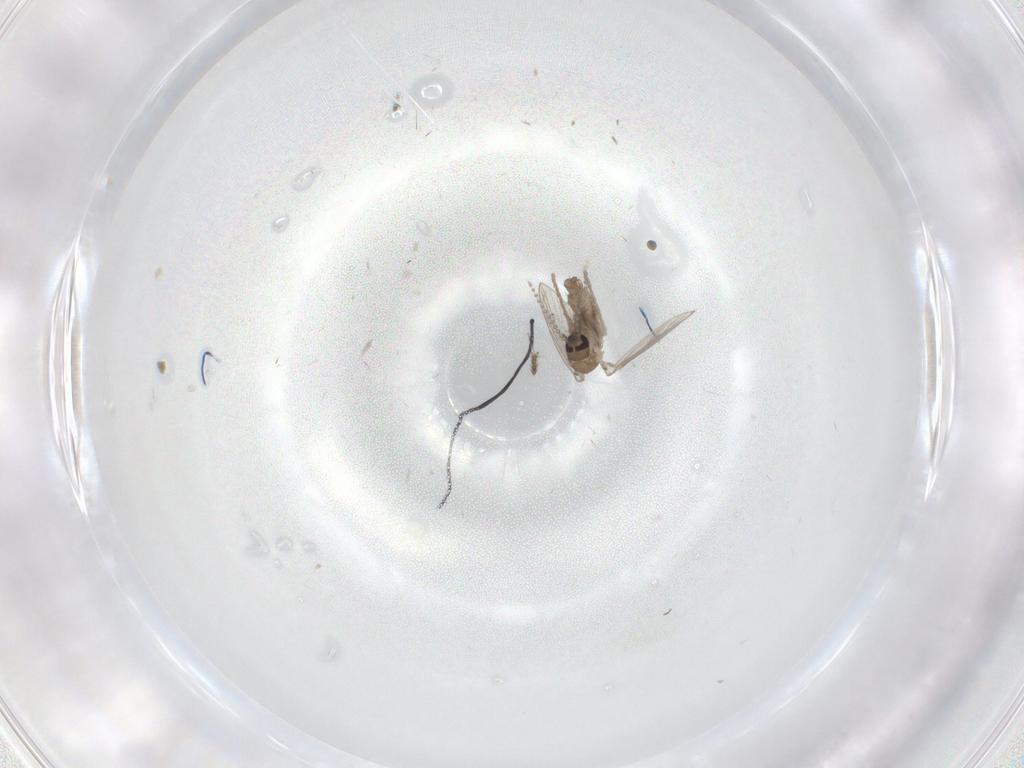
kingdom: Animalia
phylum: Arthropoda
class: Insecta
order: Diptera
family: Psychodidae
